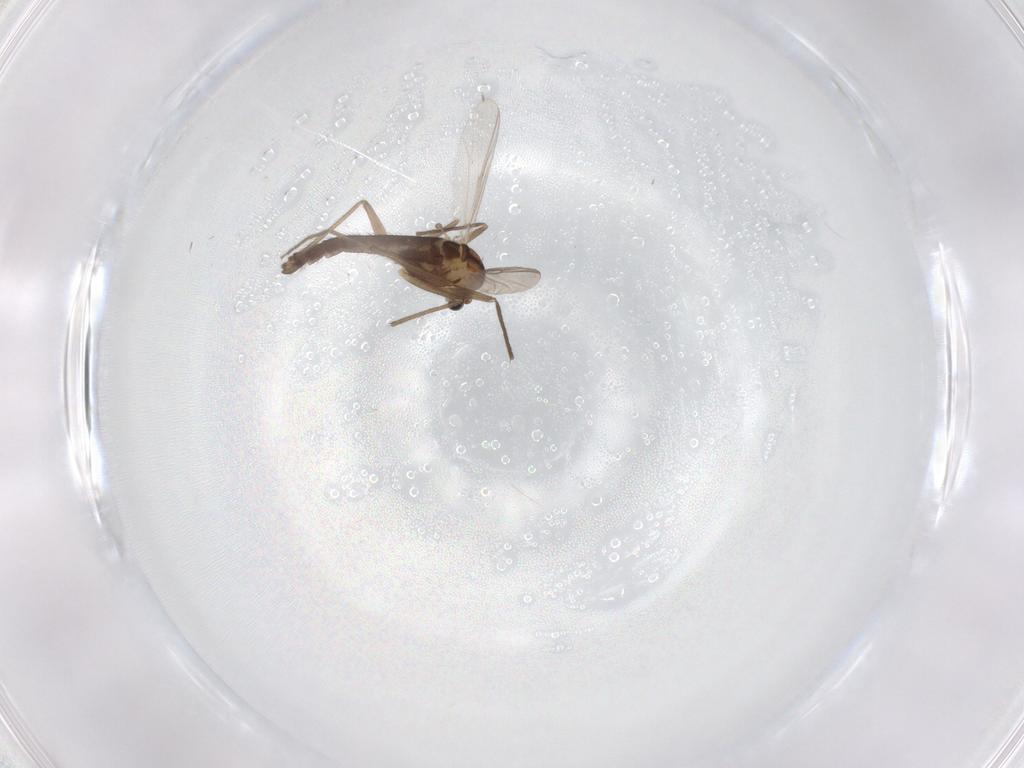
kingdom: Animalia
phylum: Arthropoda
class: Insecta
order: Diptera
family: Chironomidae
